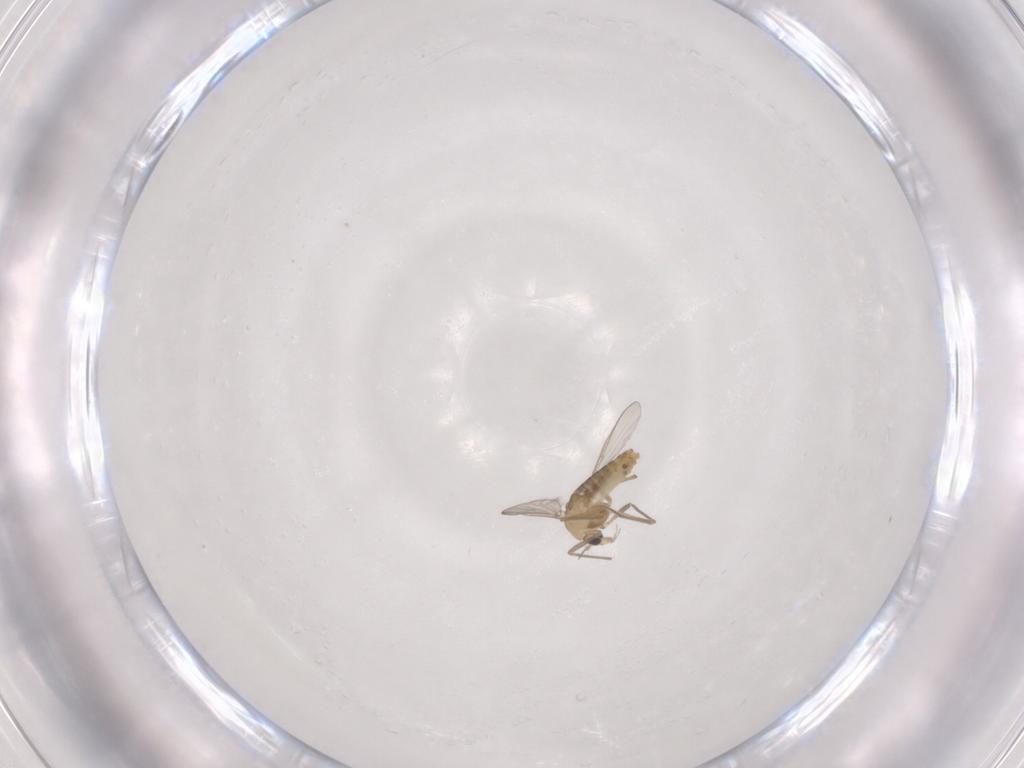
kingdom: Animalia
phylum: Arthropoda
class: Insecta
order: Diptera
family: Chironomidae
